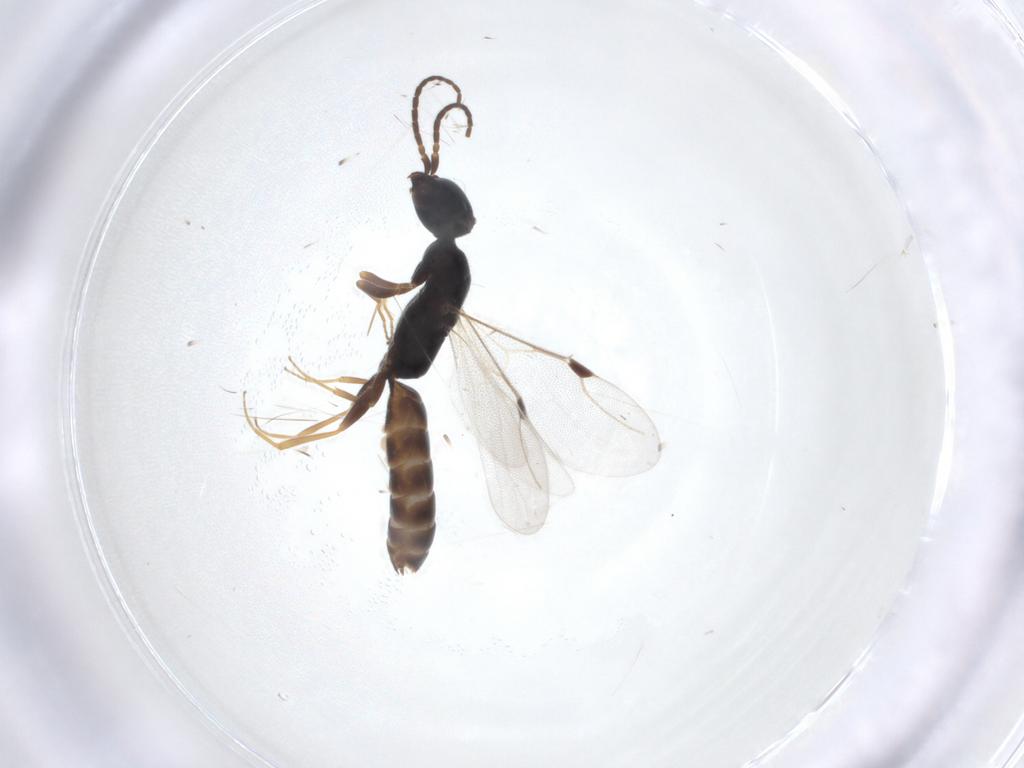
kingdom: Animalia
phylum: Arthropoda
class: Insecta
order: Hymenoptera
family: Bethylidae
